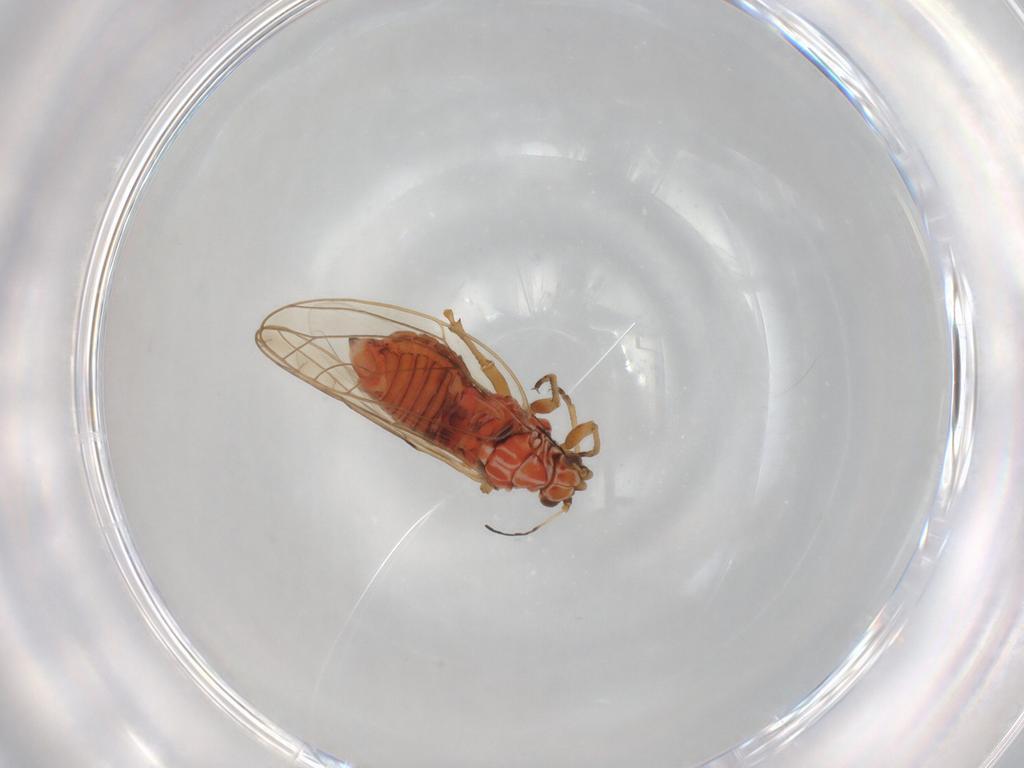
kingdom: Animalia
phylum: Arthropoda
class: Insecta
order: Hemiptera
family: Triozidae
